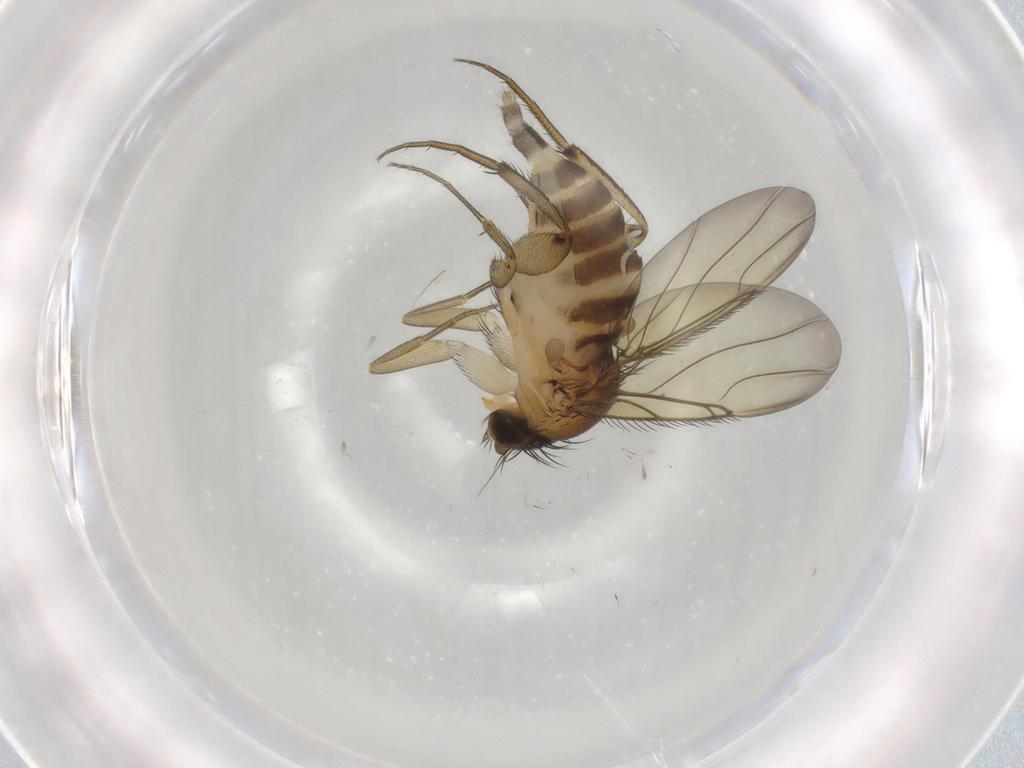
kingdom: Animalia
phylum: Arthropoda
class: Insecta
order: Diptera
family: Phoridae
